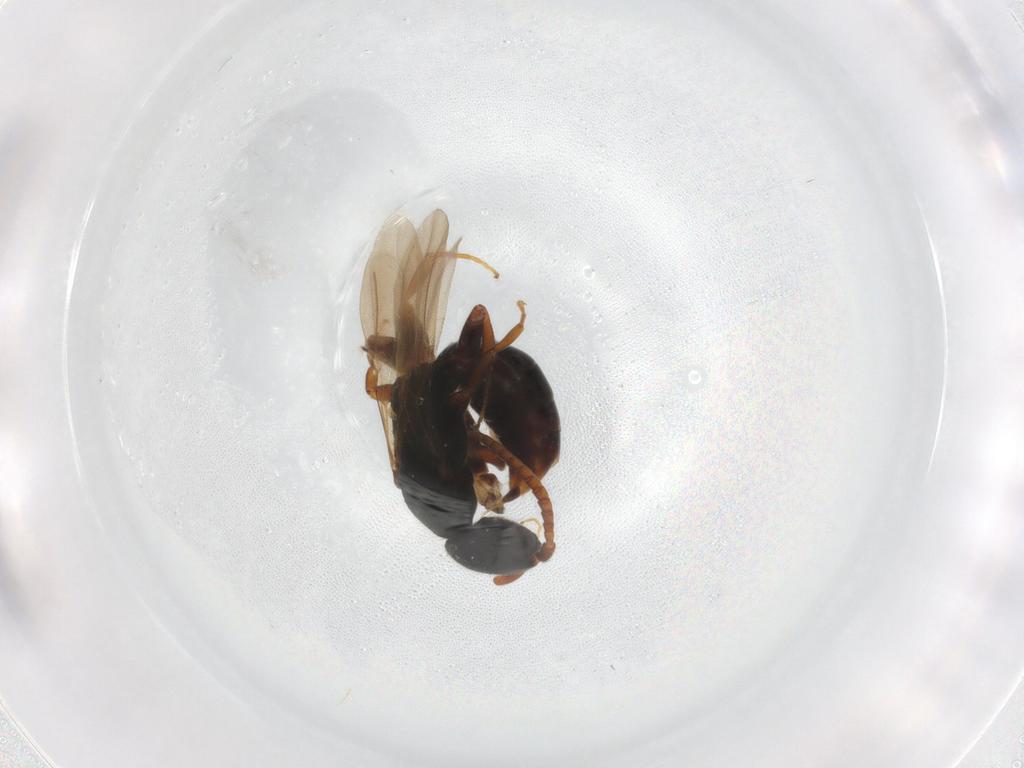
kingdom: Animalia
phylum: Arthropoda
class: Insecta
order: Hymenoptera
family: Bethylidae
